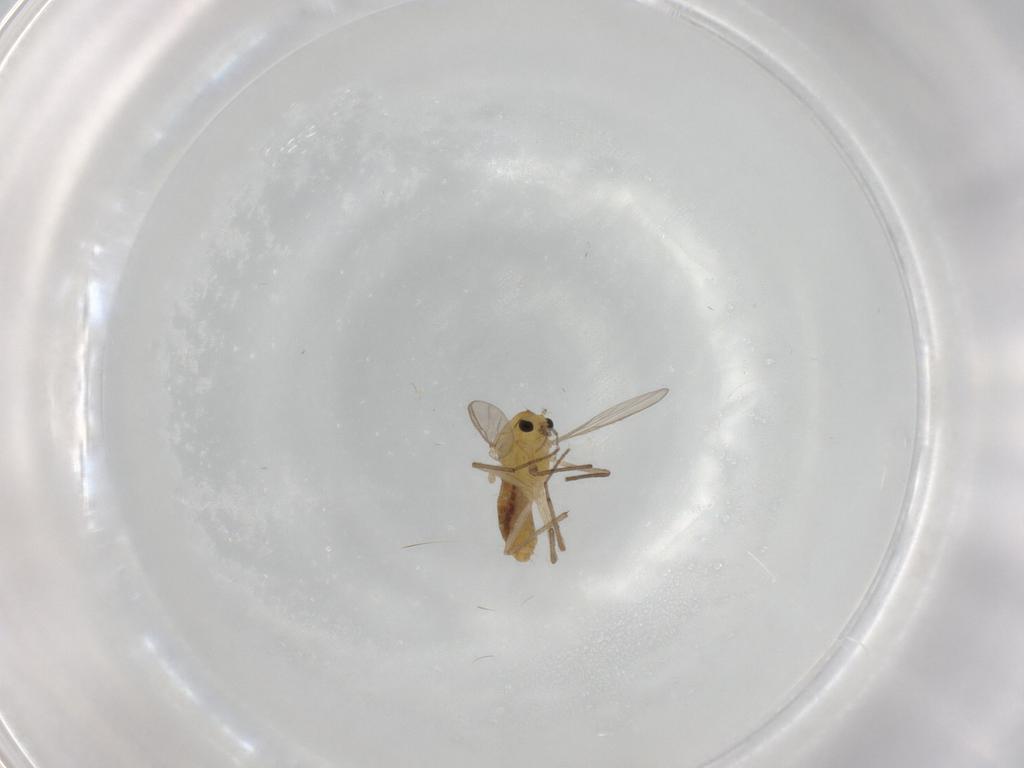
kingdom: Animalia
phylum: Arthropoda
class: Insecta
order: Diptera
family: Chironomidae
